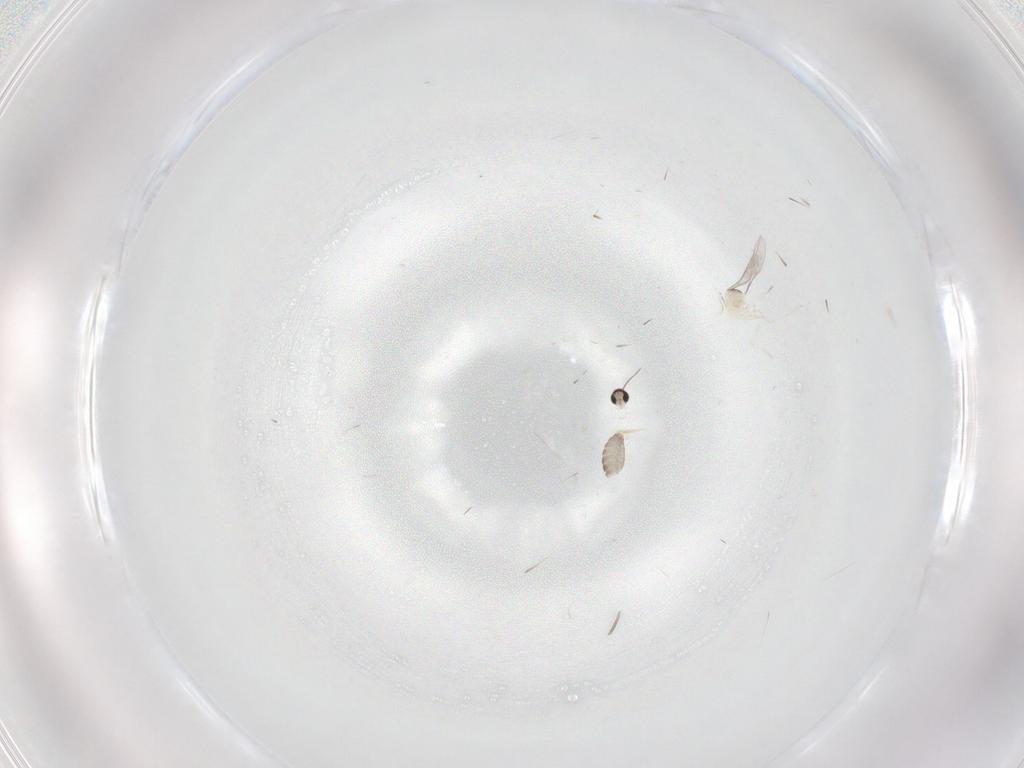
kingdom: Animalia
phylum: Arthropoda
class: Insecta
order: Diptera
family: Cecidomyiidae
